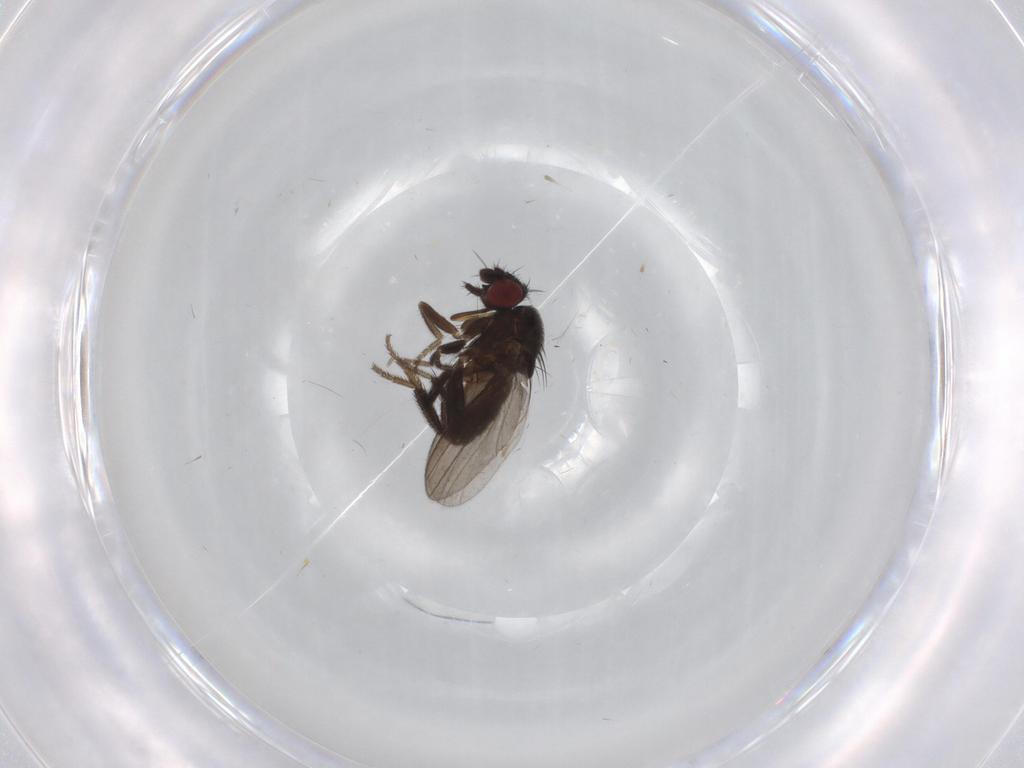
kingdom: Animalia
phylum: Arthropoda
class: Insecta
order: Diptera
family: Milichiidae
